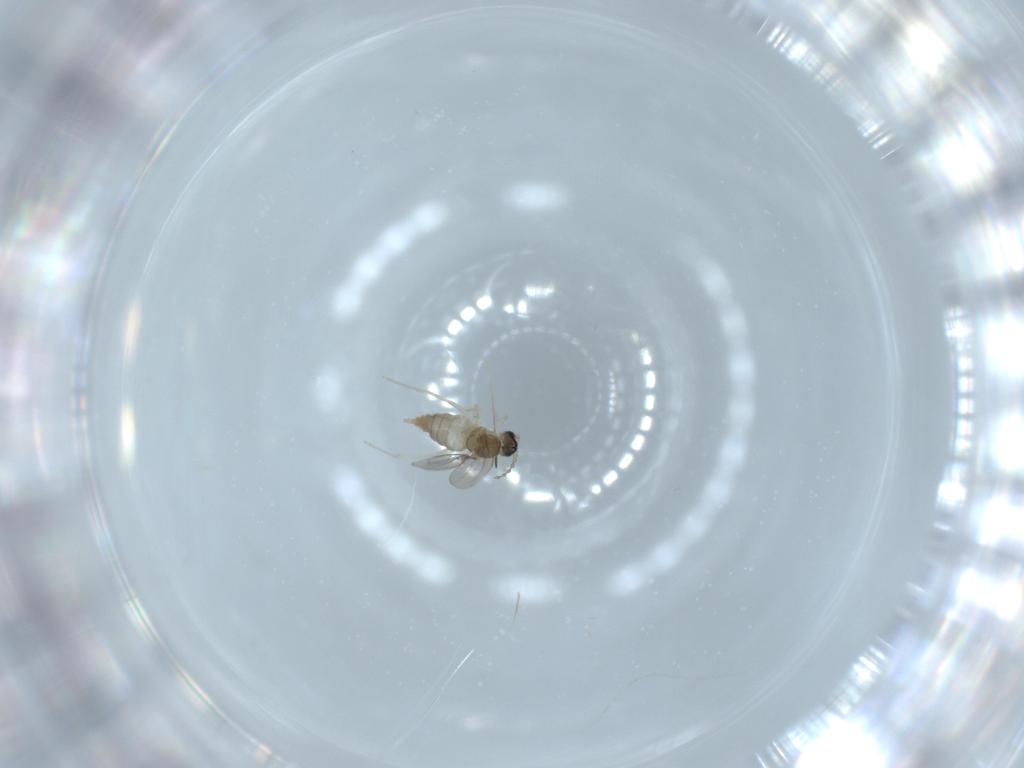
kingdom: Animalia
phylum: Arthropoda
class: Insecta
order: Diptera
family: Cecidomyiidae
